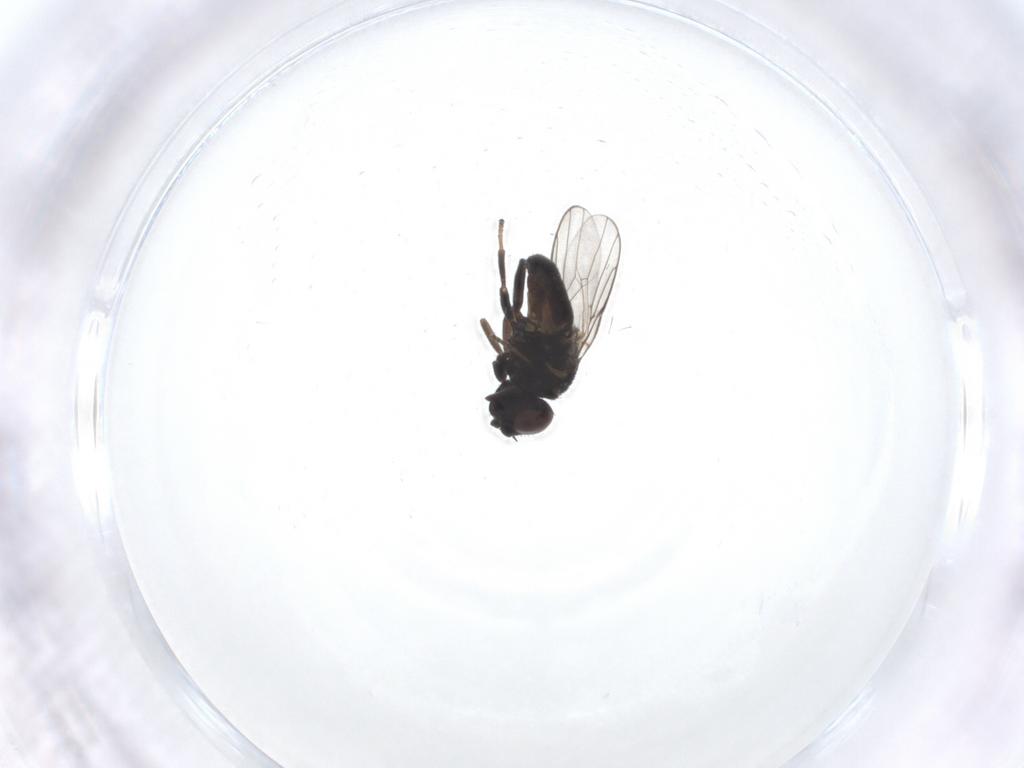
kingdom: Animalia
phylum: Arthropoda
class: Insecta
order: Diptera
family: Chloropidae
